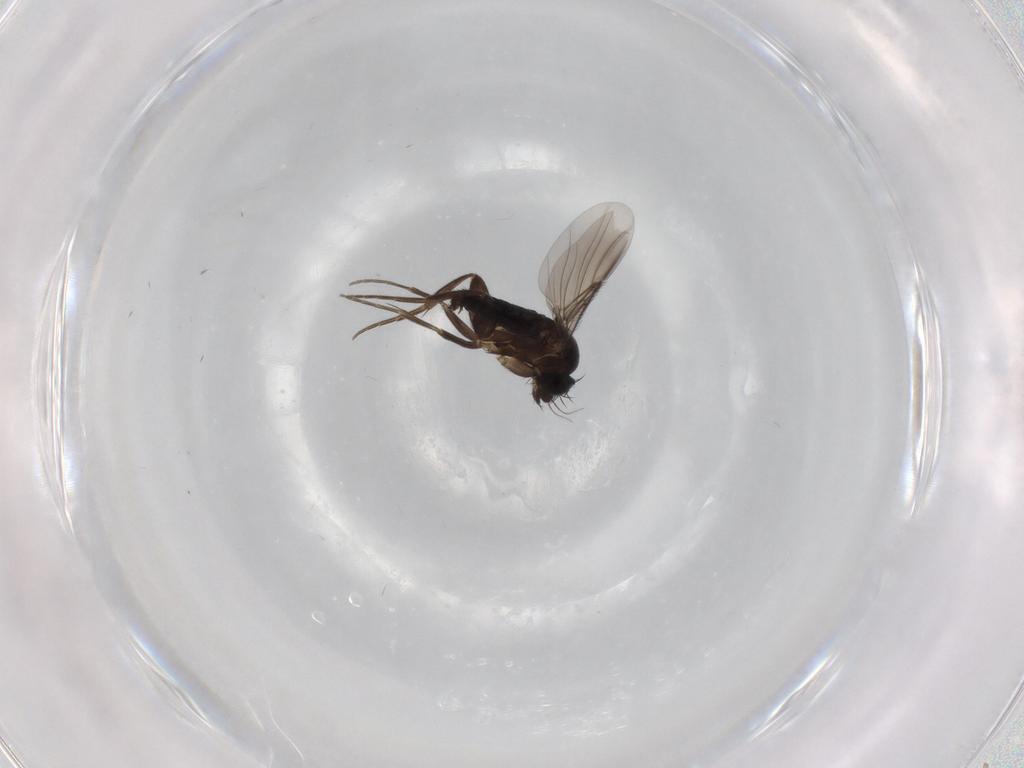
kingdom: Animalia
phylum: Arthropoda
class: Insecta
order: Diptera
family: Phoridae
